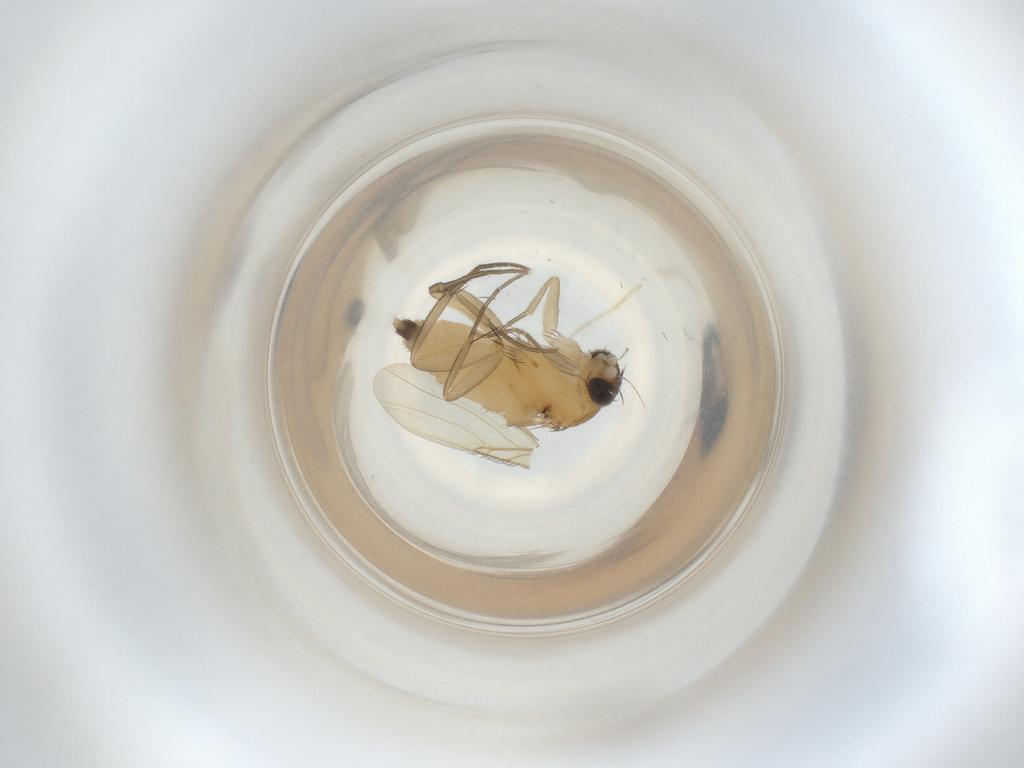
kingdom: Animalia
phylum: Arthropoda
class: Insecta
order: Diptera
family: Phoridae
